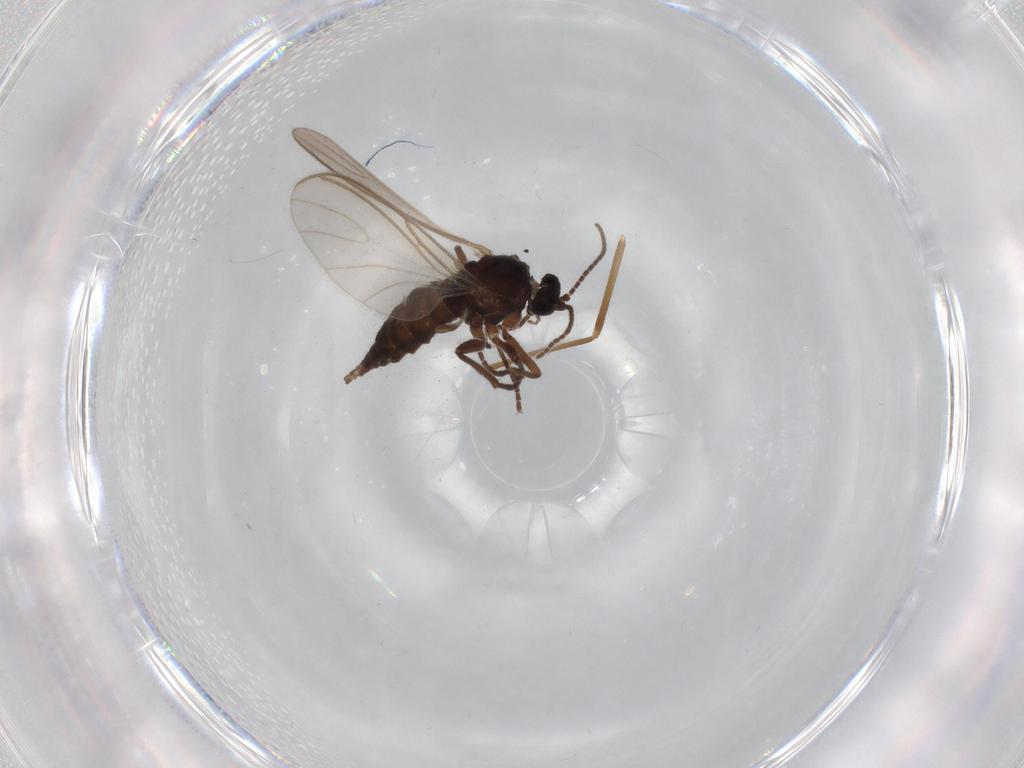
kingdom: Animalia
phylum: Arthropoda
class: Insecta
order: Diptera
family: Sciaridae
